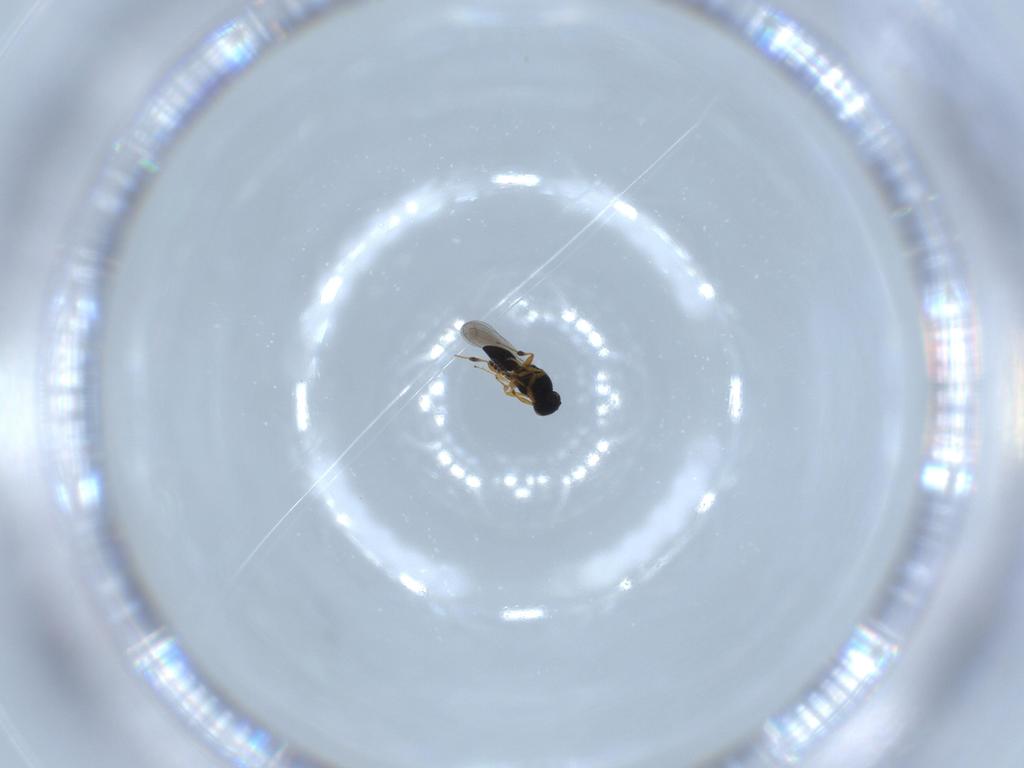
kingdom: Animalia
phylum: Arthropoda
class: Insecta
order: Hymenoptera
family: Platygastridae
